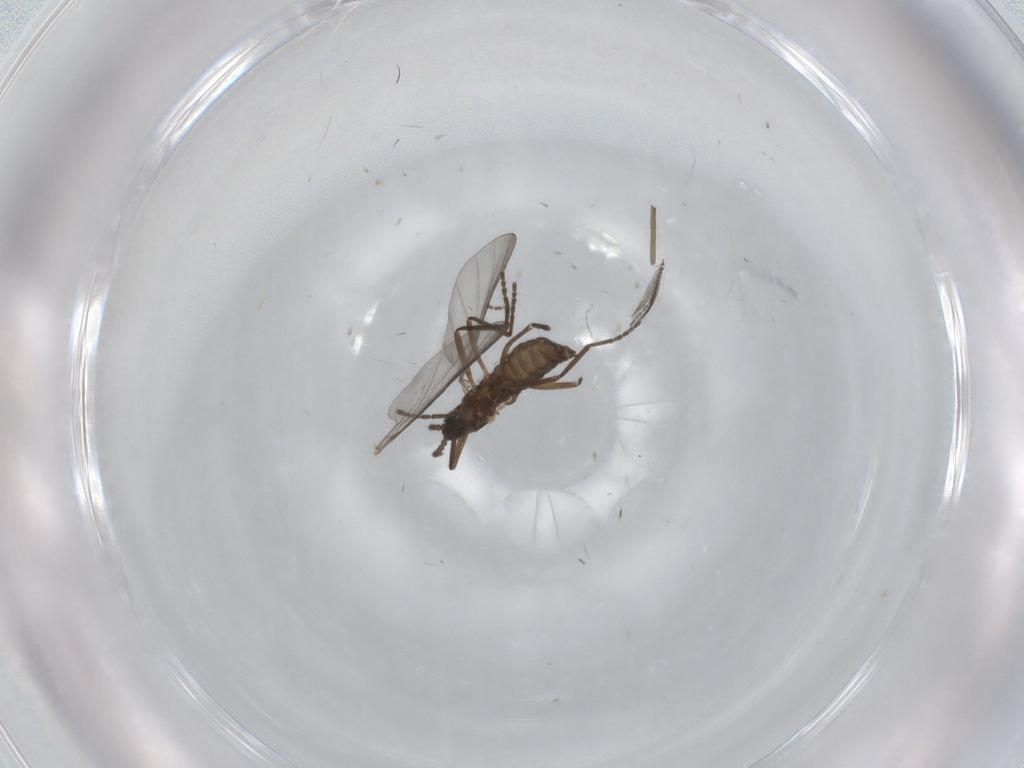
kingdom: Animalia
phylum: Arthropoda
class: Insecta
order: Diptera
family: Cecidomyiidae
